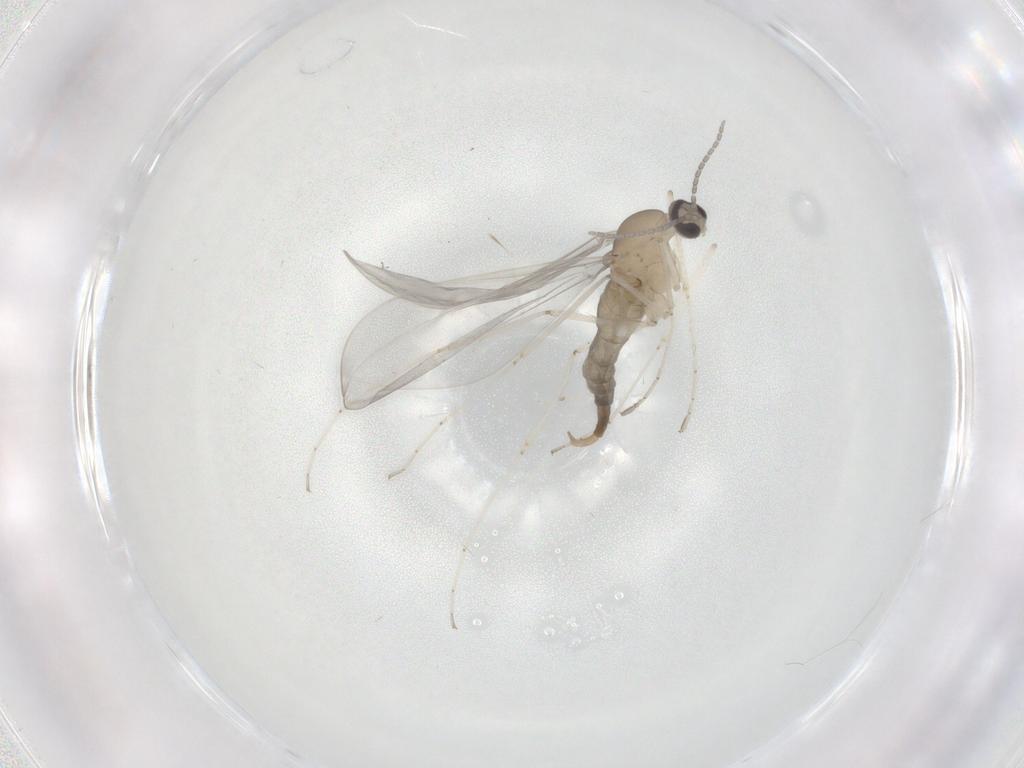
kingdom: Animalia
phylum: Arthropoda
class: Insecta
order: Diptera
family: Cecidomyiidae
